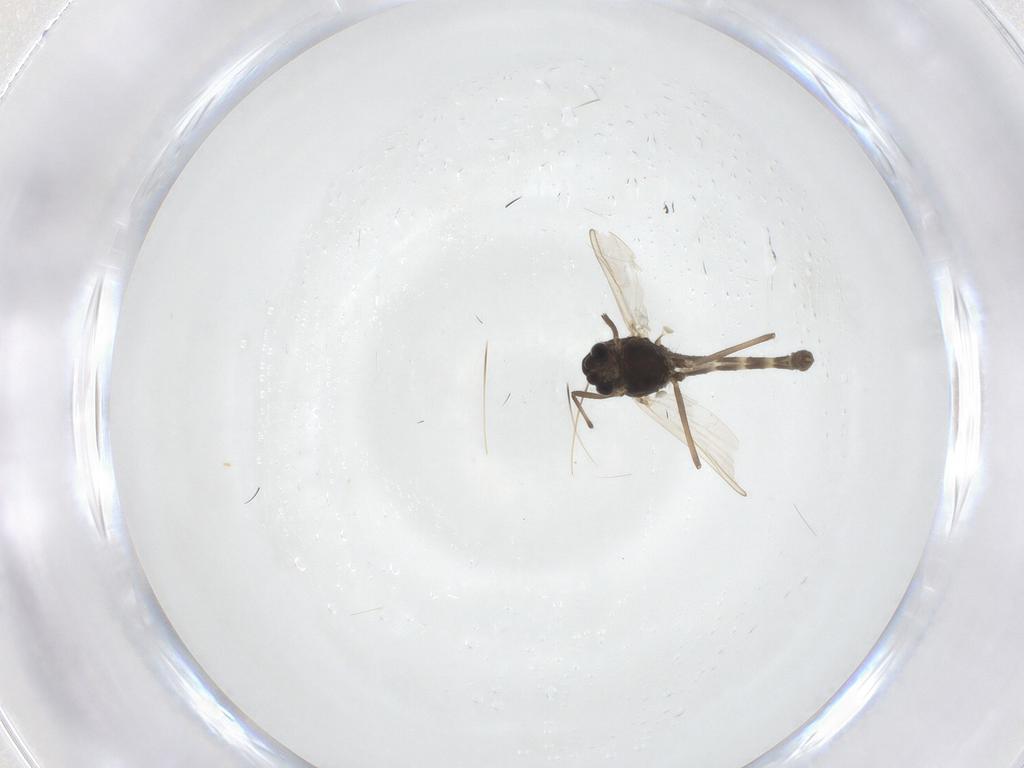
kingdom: Animalia
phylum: Arthropoda
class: Insecta
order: Diptera
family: Chironomidae
